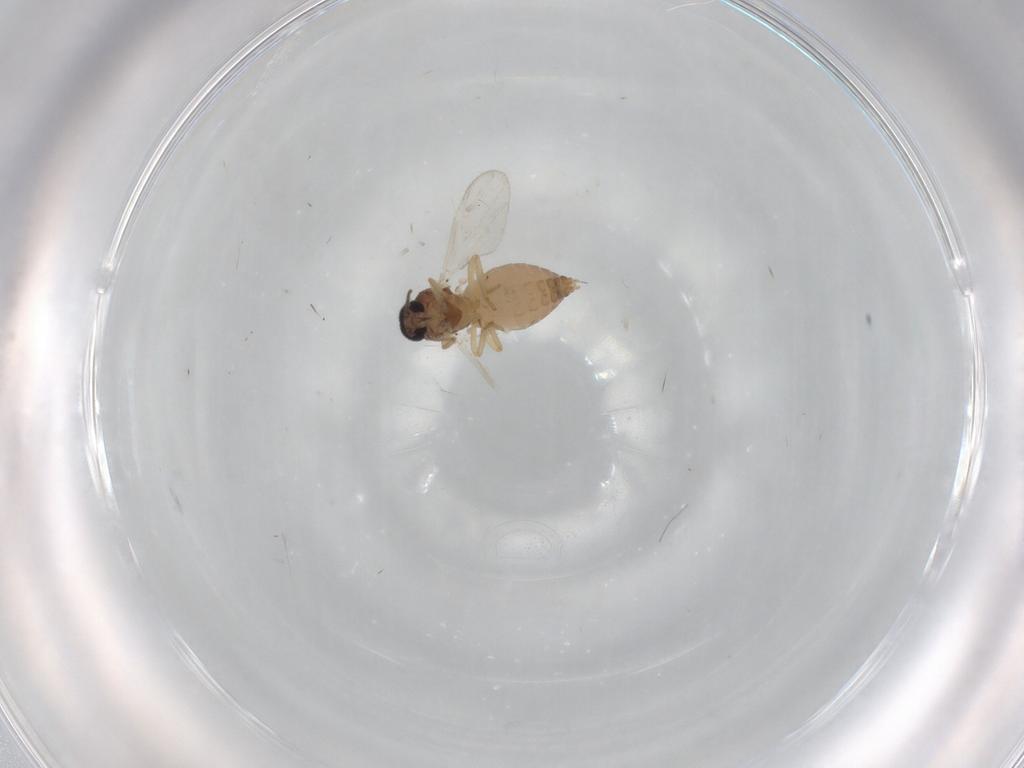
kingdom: Animalia
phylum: Arthropoda
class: Insecta
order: Diptera
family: Ceratopogonidae
